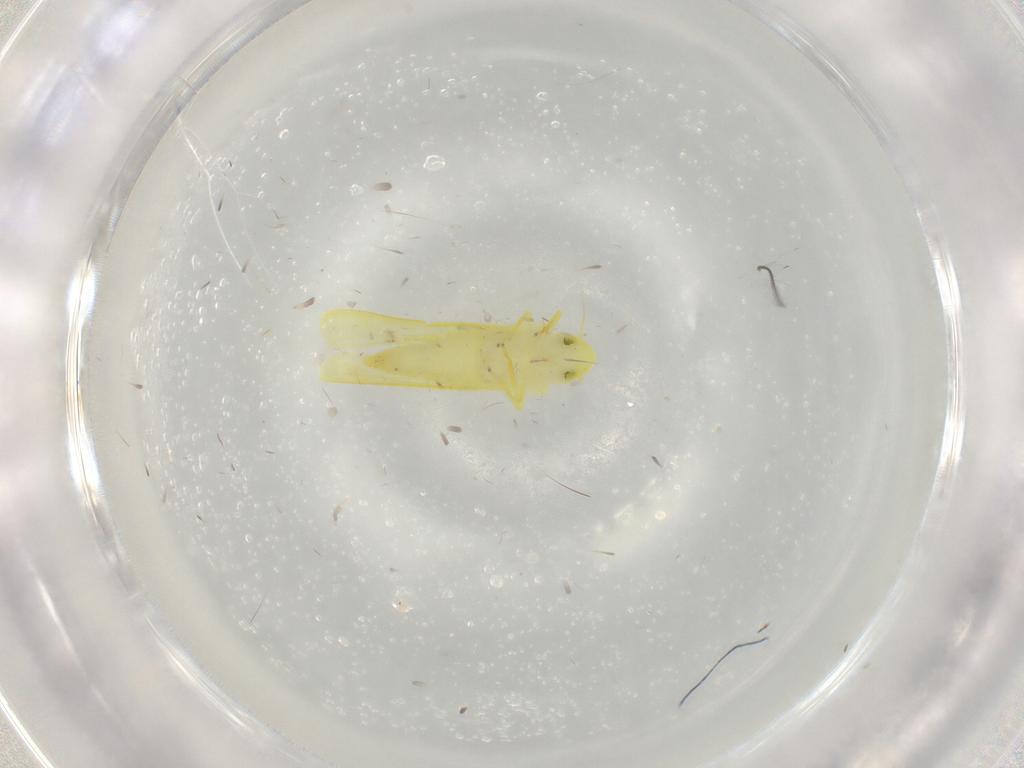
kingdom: Animalia
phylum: Arthropoda
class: Insecta
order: Hemiptera
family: Cicadellidae
